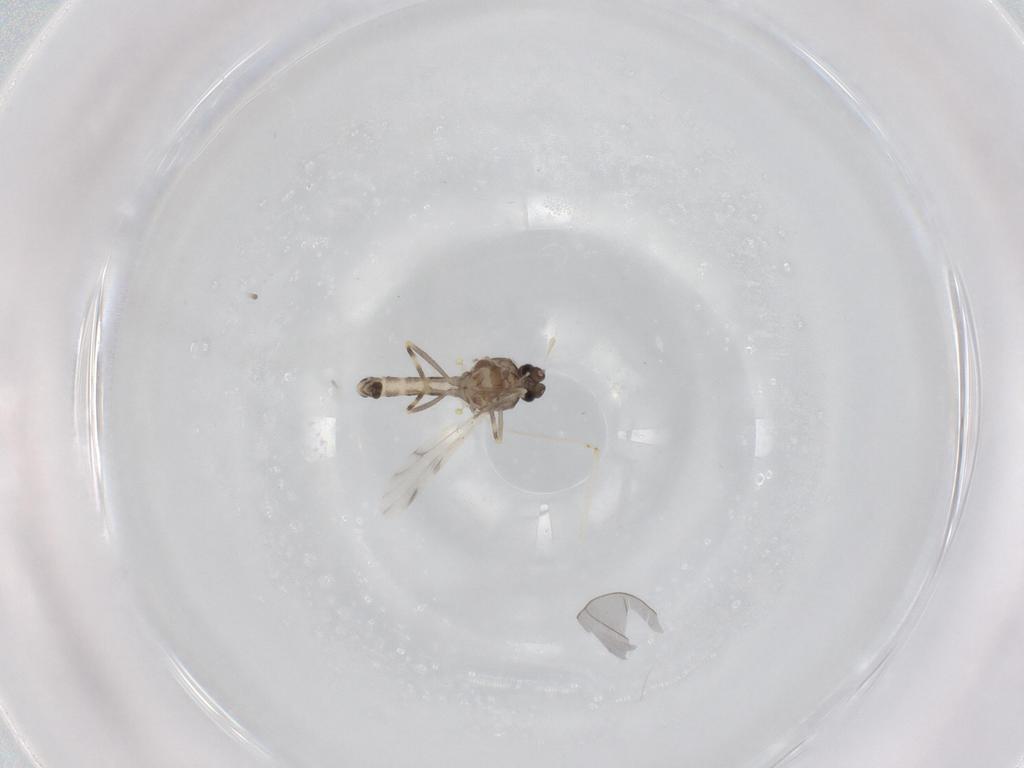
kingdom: Animalia
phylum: Arthropoda
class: Insecta
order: Diptera
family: Ceratopogonidae
